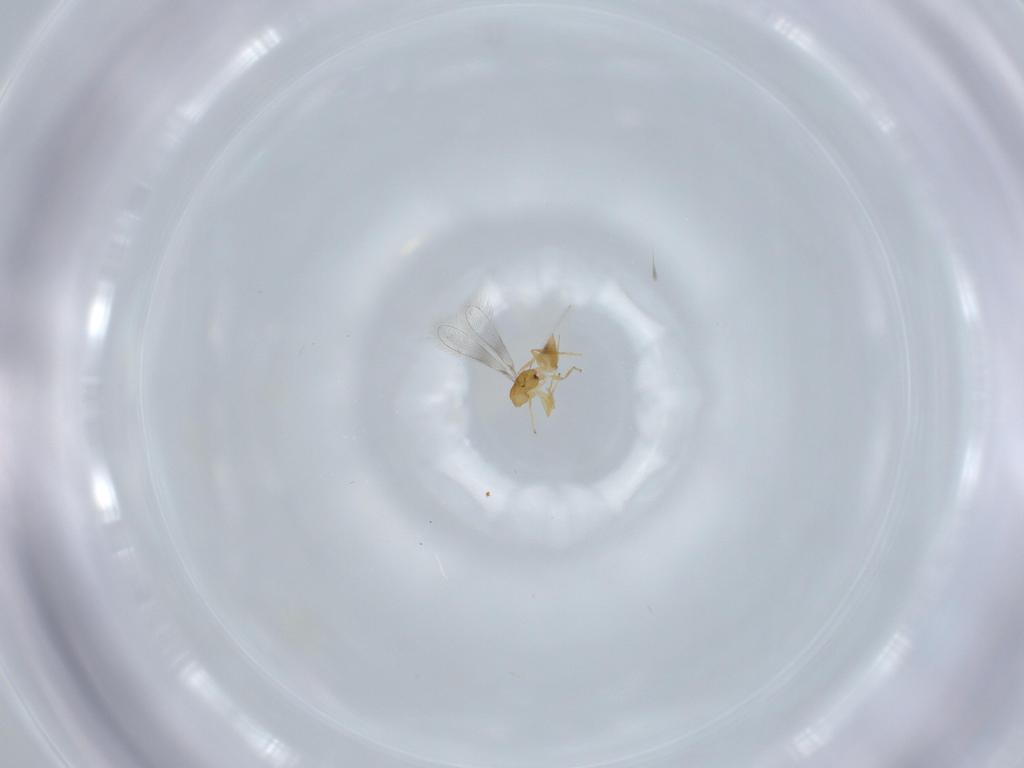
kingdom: Animalia
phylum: Arthropoda
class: Insecta
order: Hymenoptera
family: Mymaridae
